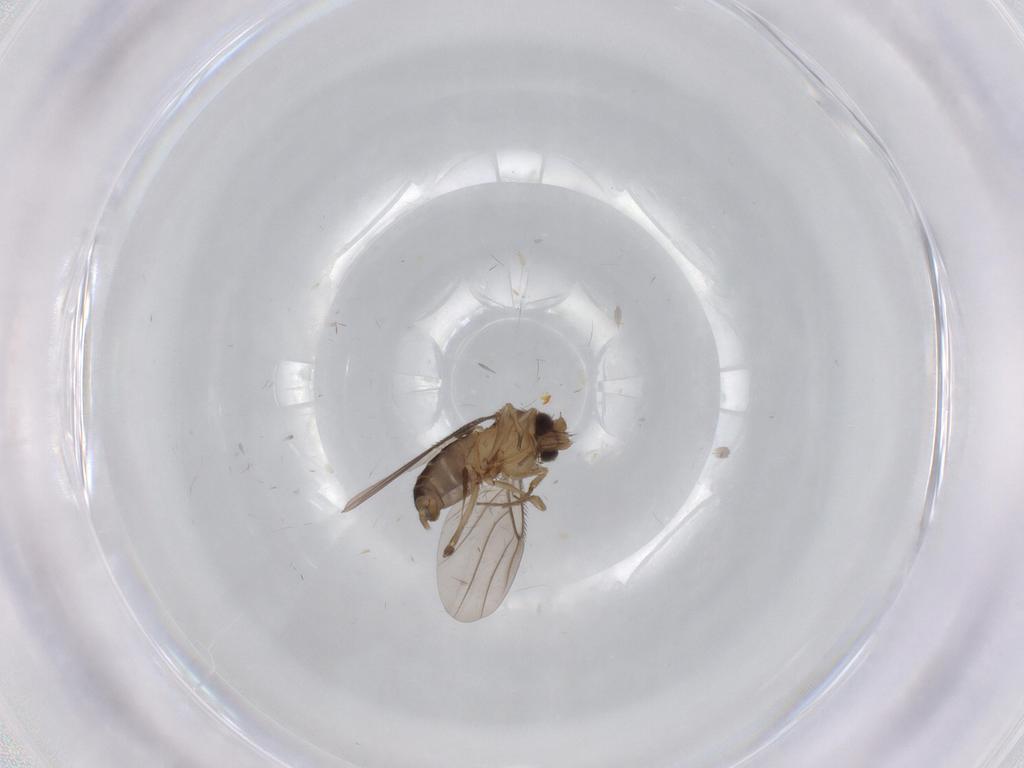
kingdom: Animalia
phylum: Arthropoda
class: Insecta
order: Diptera
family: Phoridae
